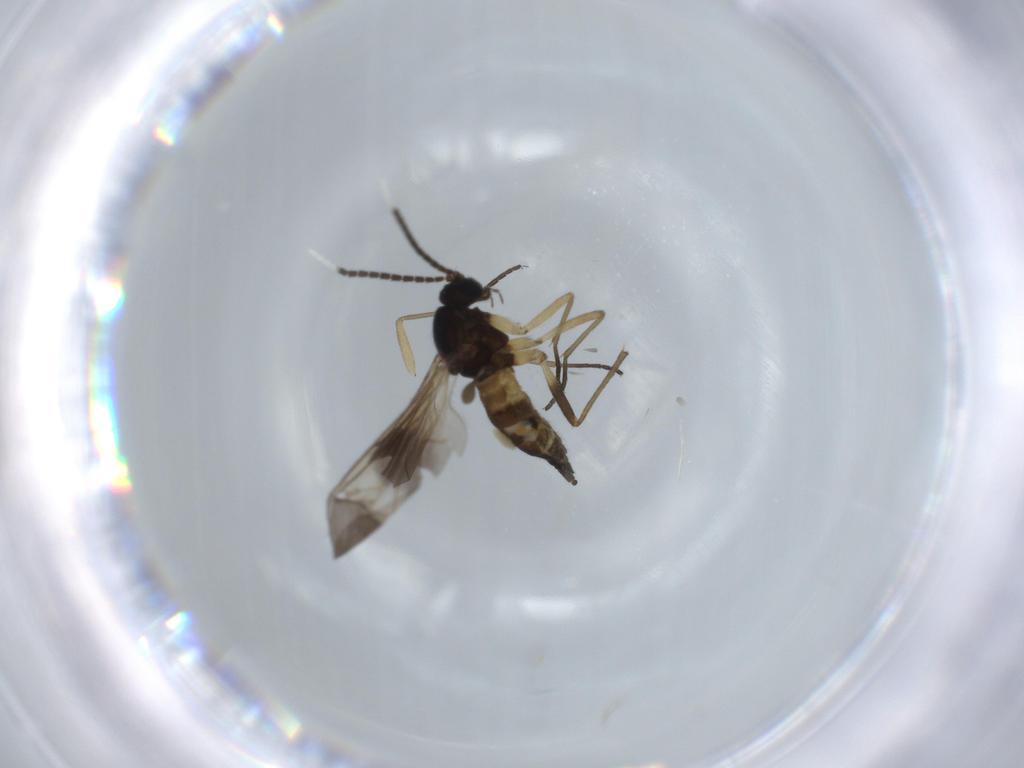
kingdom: Animalia
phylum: Arthropoda
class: Insecta
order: Diptera
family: Sciaridae
